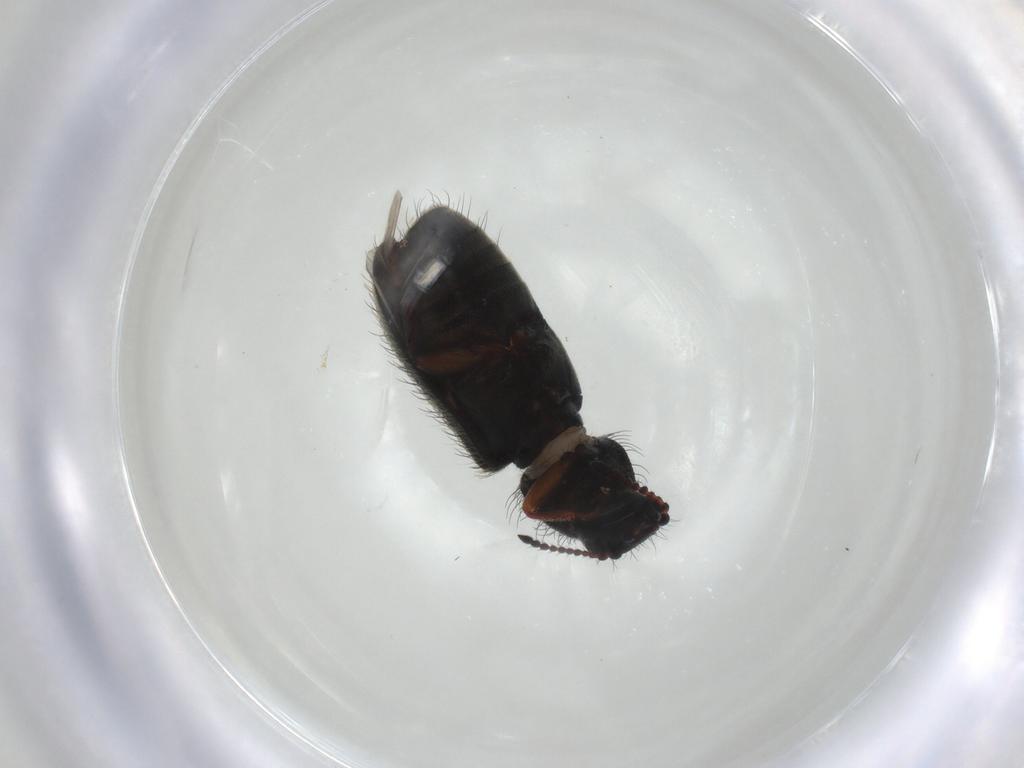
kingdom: Animalia
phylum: Arthropoda
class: Insecta
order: Coleoptera
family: Melyridae
